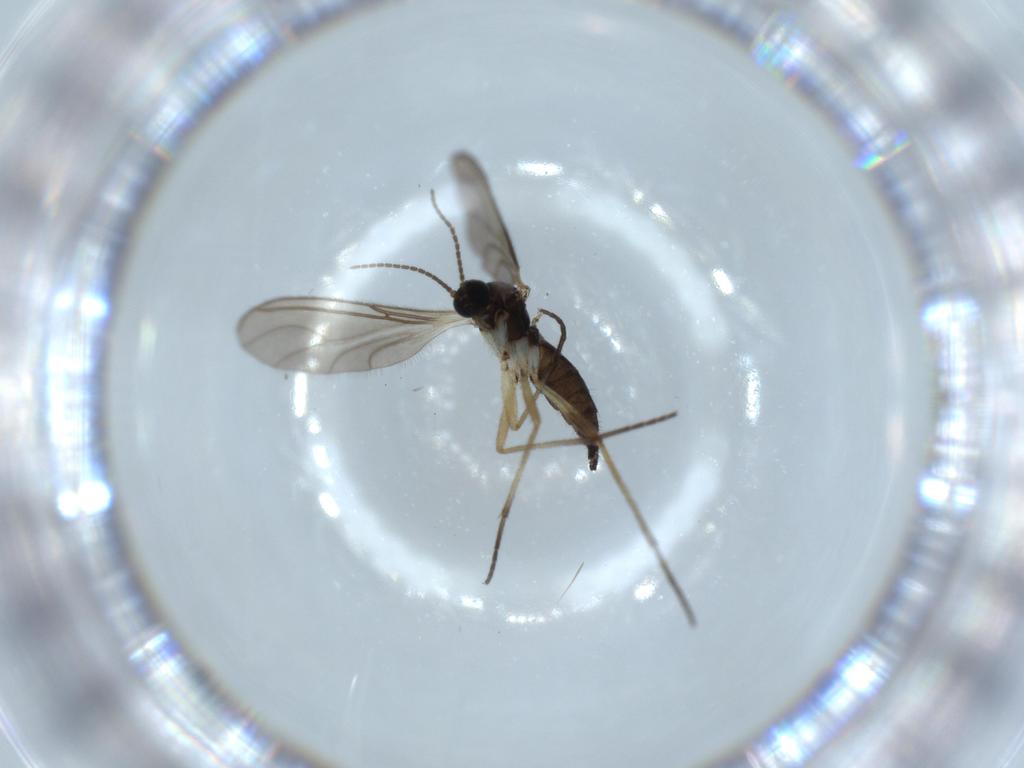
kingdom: Animalia
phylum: Arthropoda
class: Insecta
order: Diptera
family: Sciaridae
